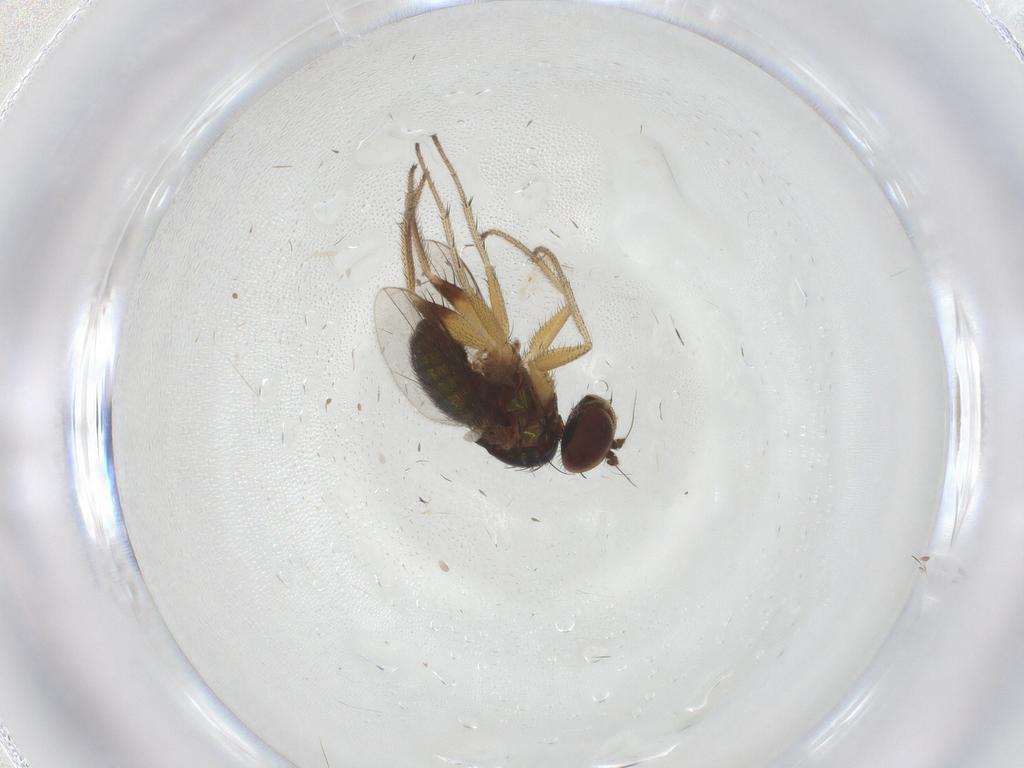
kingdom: Animalia
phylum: Arthropoda
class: Insecta
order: Diptera
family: Dolichopodidae
